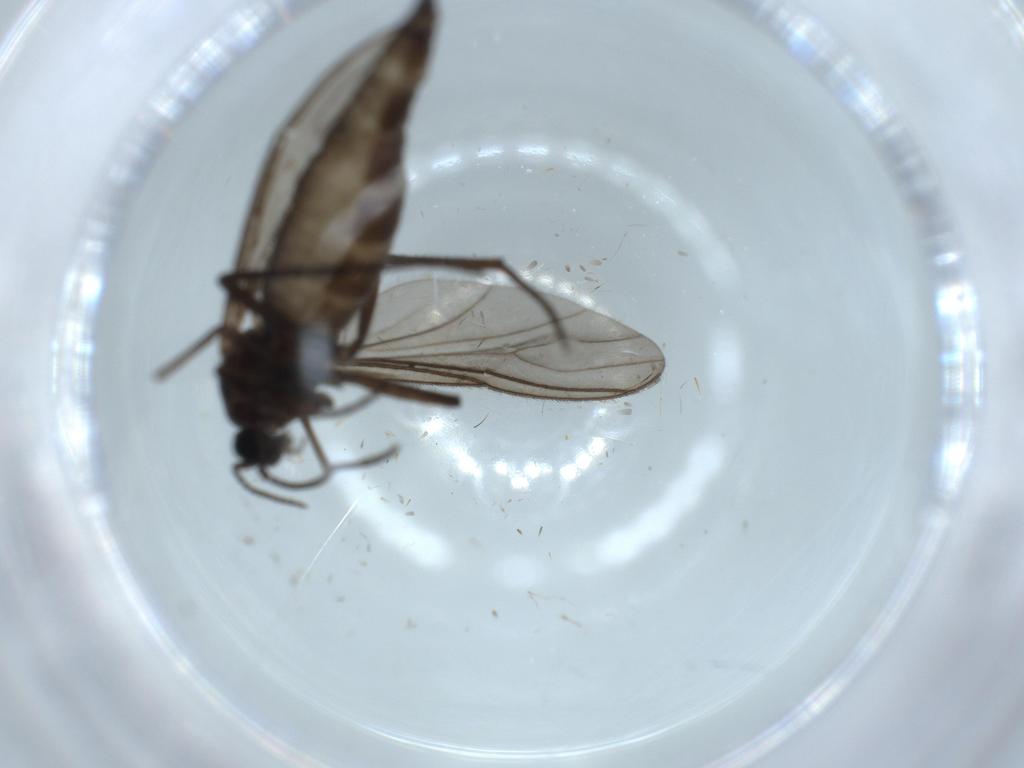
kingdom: Animalia
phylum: Arthropoda
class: Insecta
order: Diptera
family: Sciaridae
